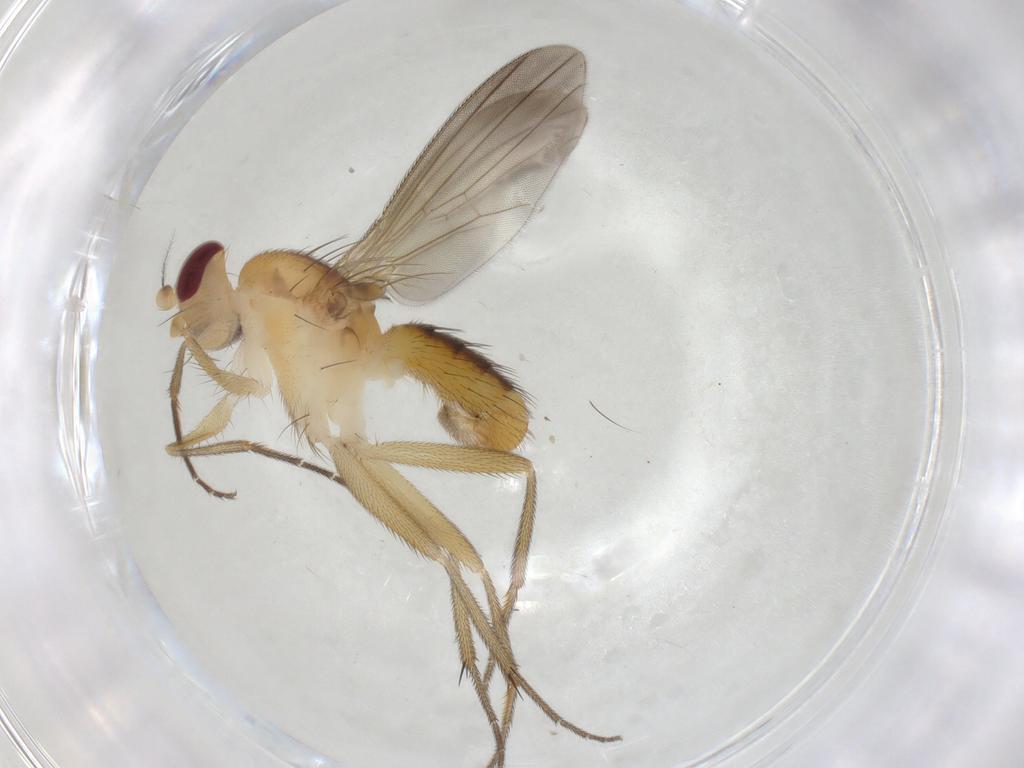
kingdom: Animalia
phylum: Arthropoda
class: Insecta
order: Diptera
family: Clusiidae
